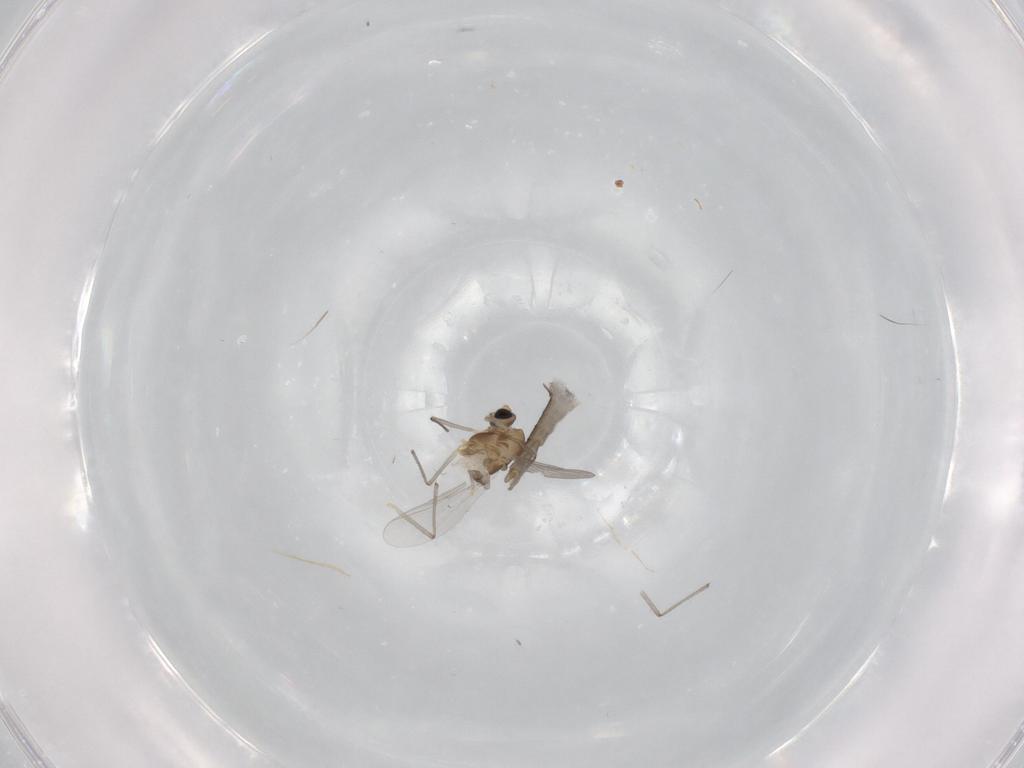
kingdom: Animalia
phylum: Arthropoda
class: Insecta
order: Diptera
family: Chironomidae
